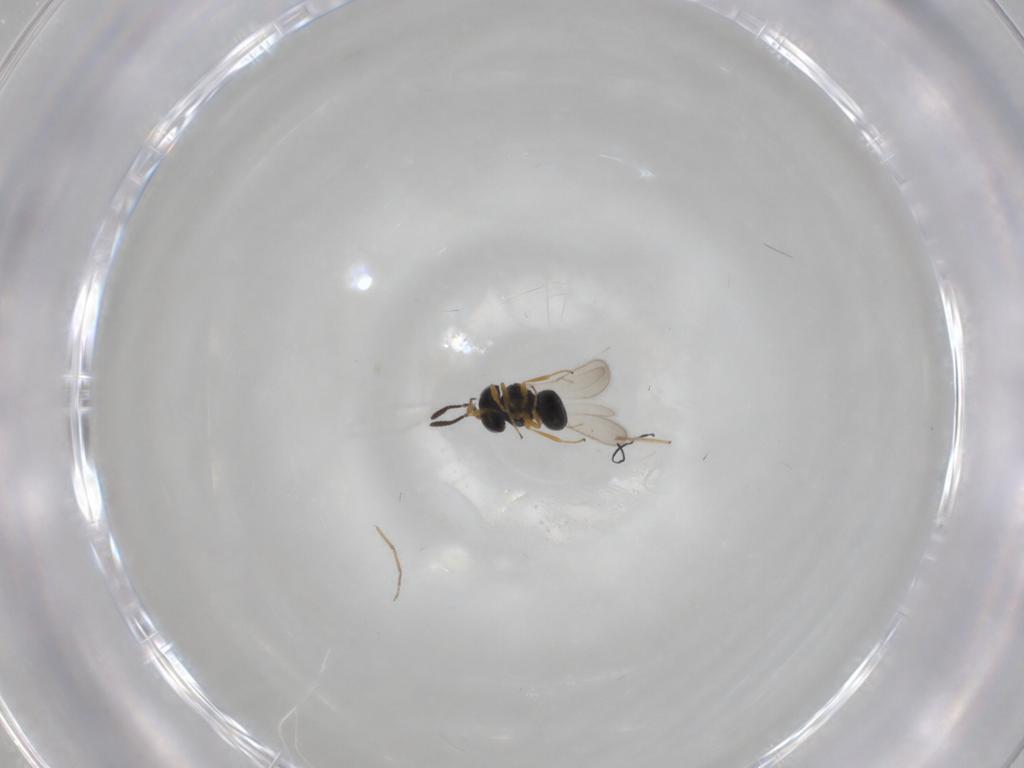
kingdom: Animalia
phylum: Arthropoda
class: Insecta
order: Hymenoptera
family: Scelionidae
